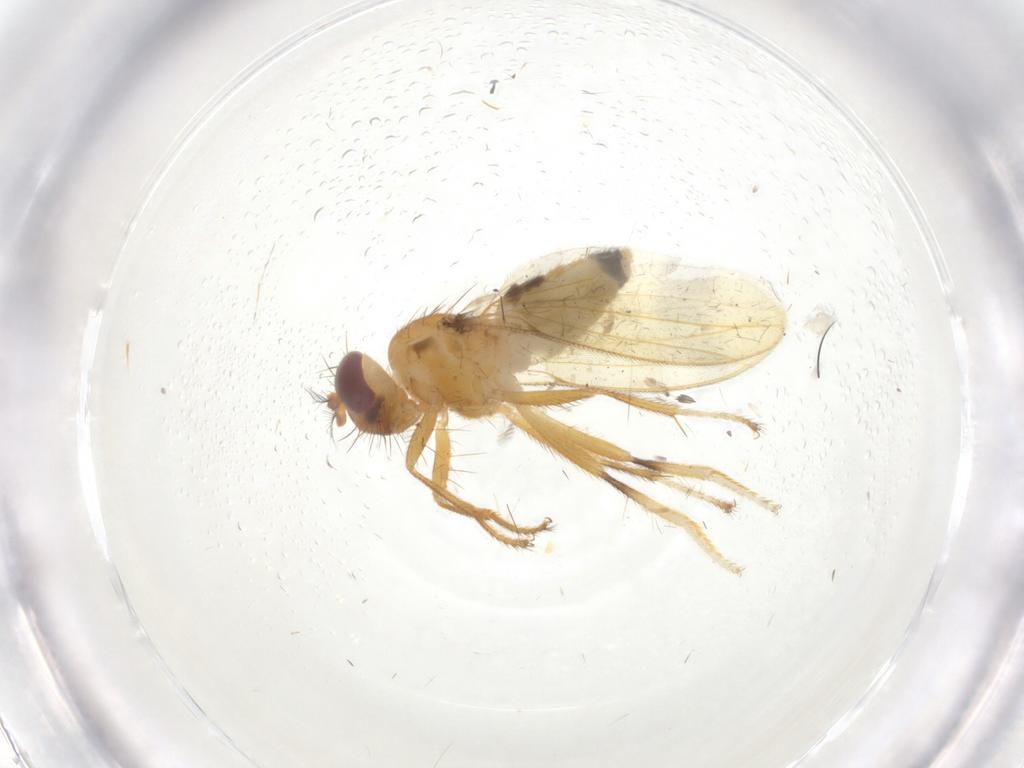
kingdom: Animalia
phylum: Arthropoda
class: Insecta
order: Diptera
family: Periscelididae
